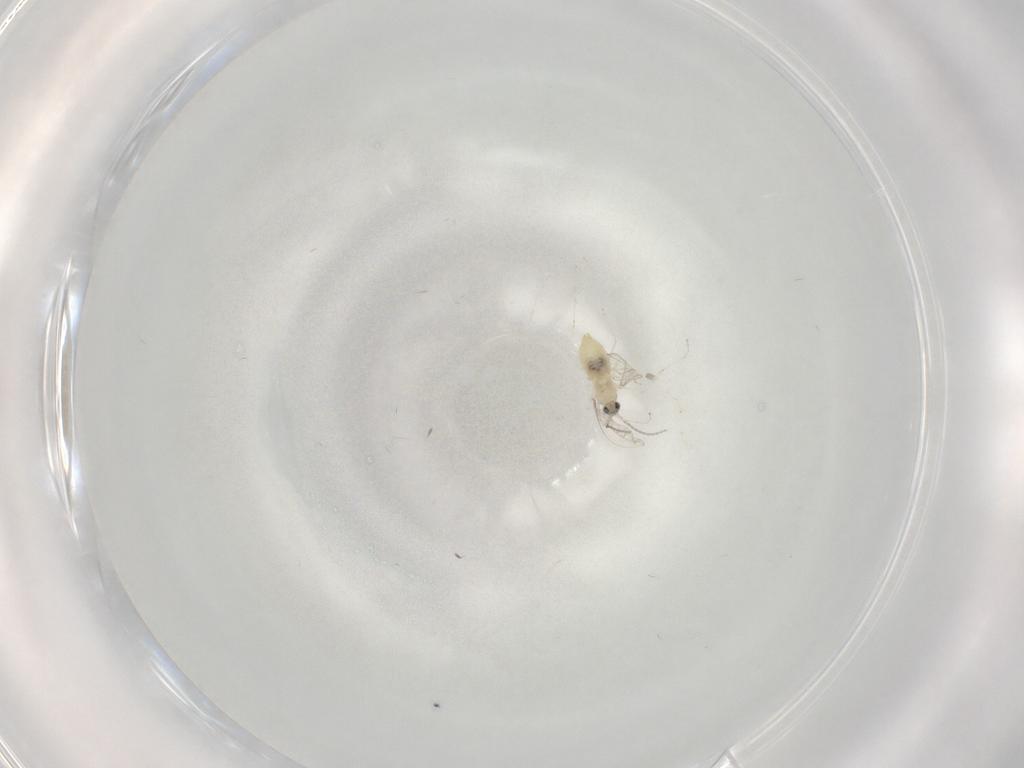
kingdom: Animalia
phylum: Arthropoda
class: Insecta
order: Diptera
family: Cecidomyiidae
